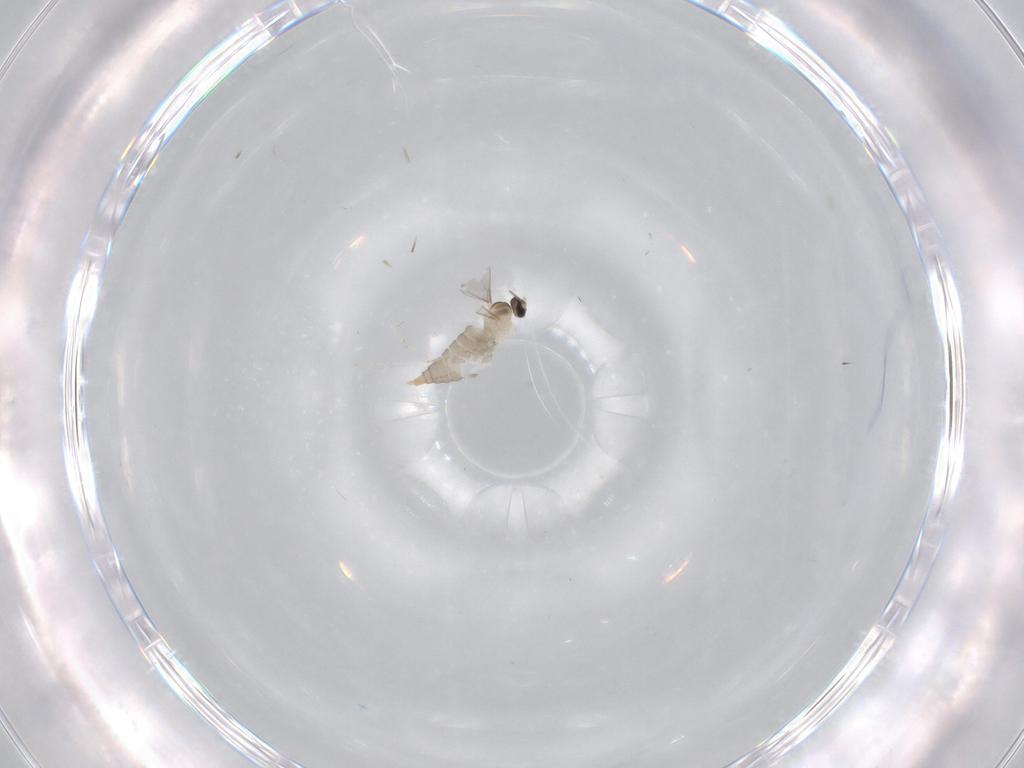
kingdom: Animalia
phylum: Arthropoda
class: Insecta
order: Diptera
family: Cecidomyiidae
